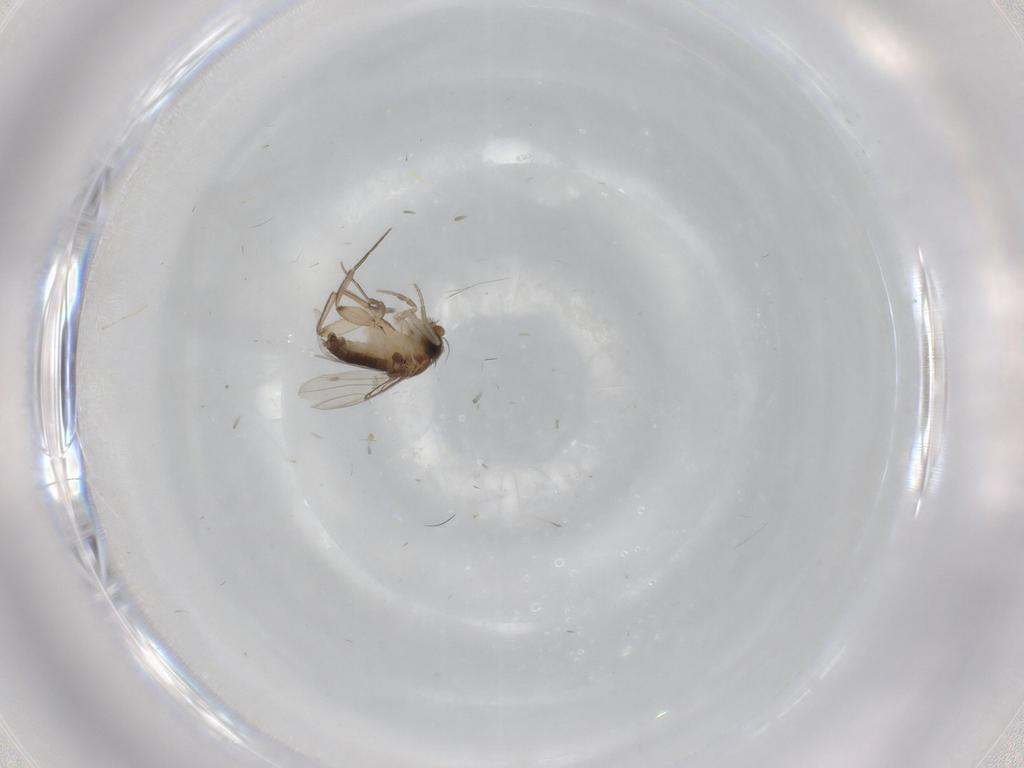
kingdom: Animalia
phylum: Arthropoda
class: Insecta
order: Diptera
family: Phoridae
